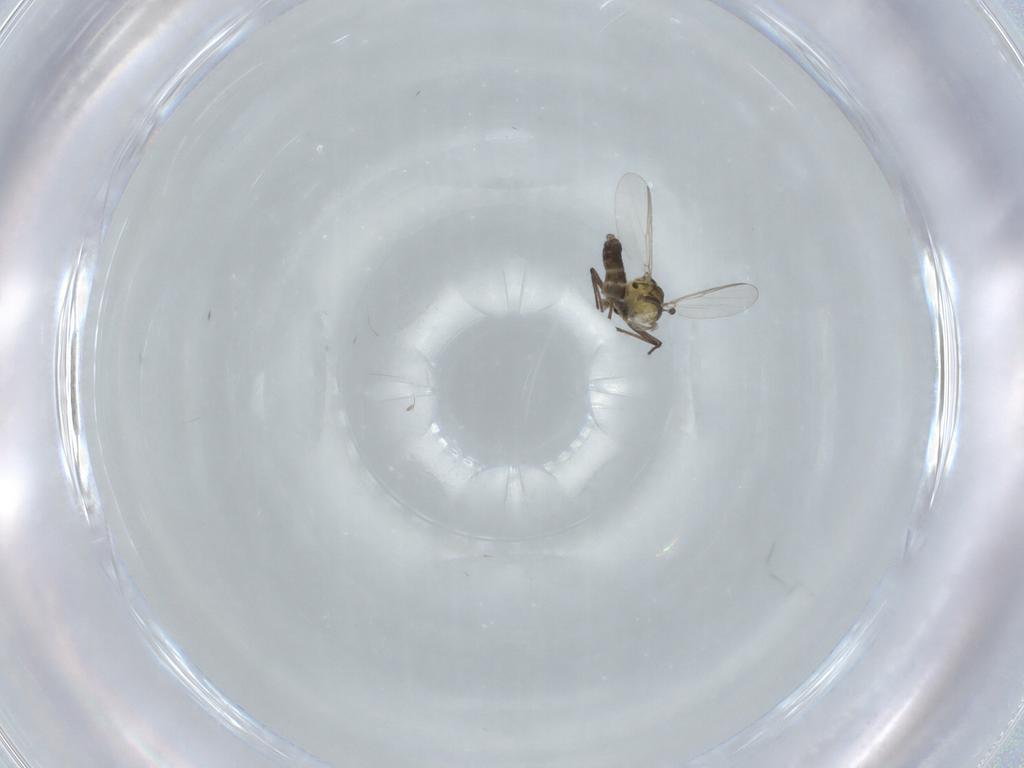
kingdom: Animalia
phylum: Arthropoda
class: Insecta
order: Diptera
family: Chironomidae
